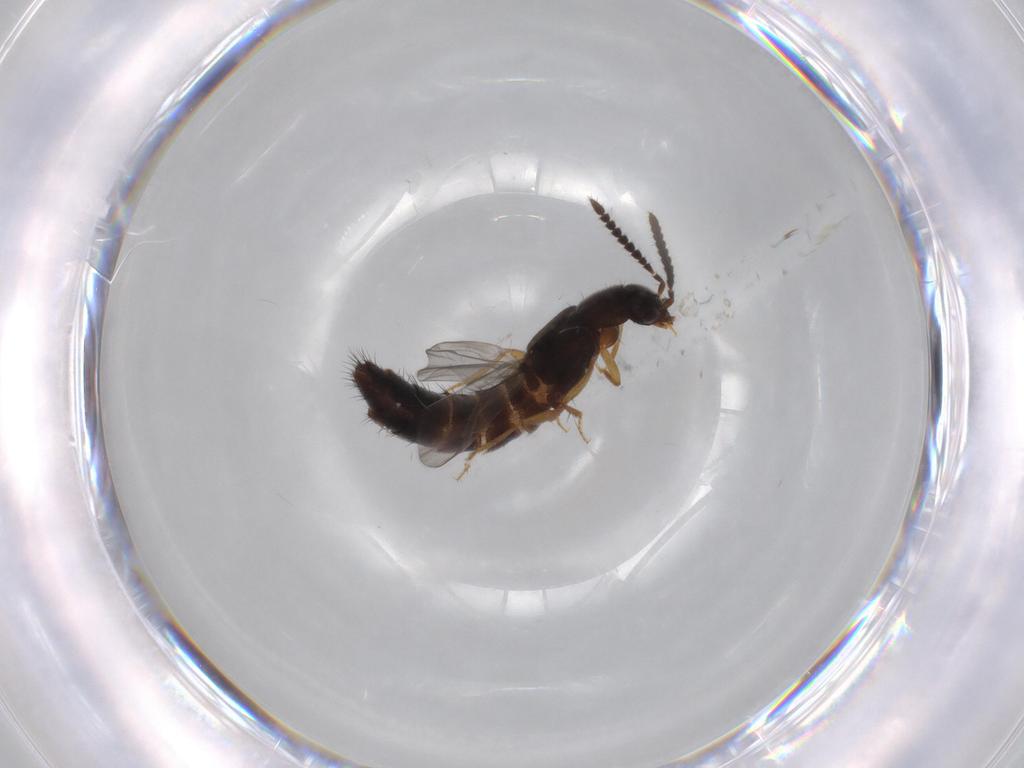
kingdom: Animalia
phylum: Arthropoda
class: Insecta
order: Coleoptera
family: Staphylinidae
